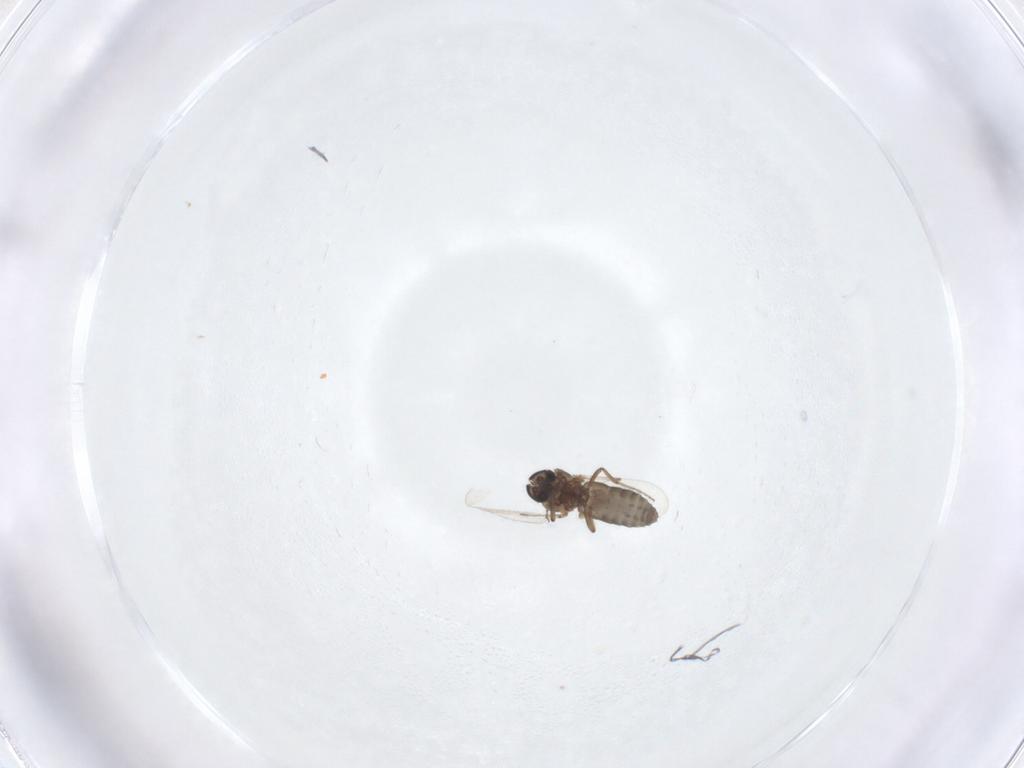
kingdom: Animalia
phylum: Arthropoda
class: Insecta
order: Diptera
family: Ceratopogonidae
